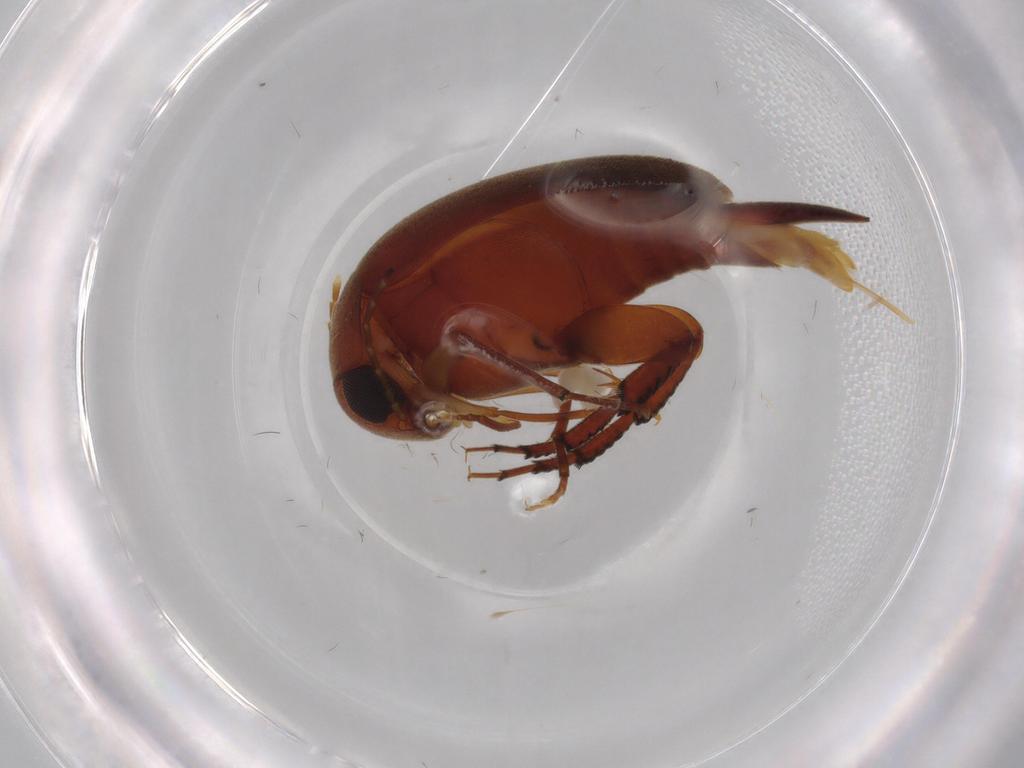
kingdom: Animalia
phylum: Arthropoda
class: Insecta
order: Coleoptera
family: Mordellidae
